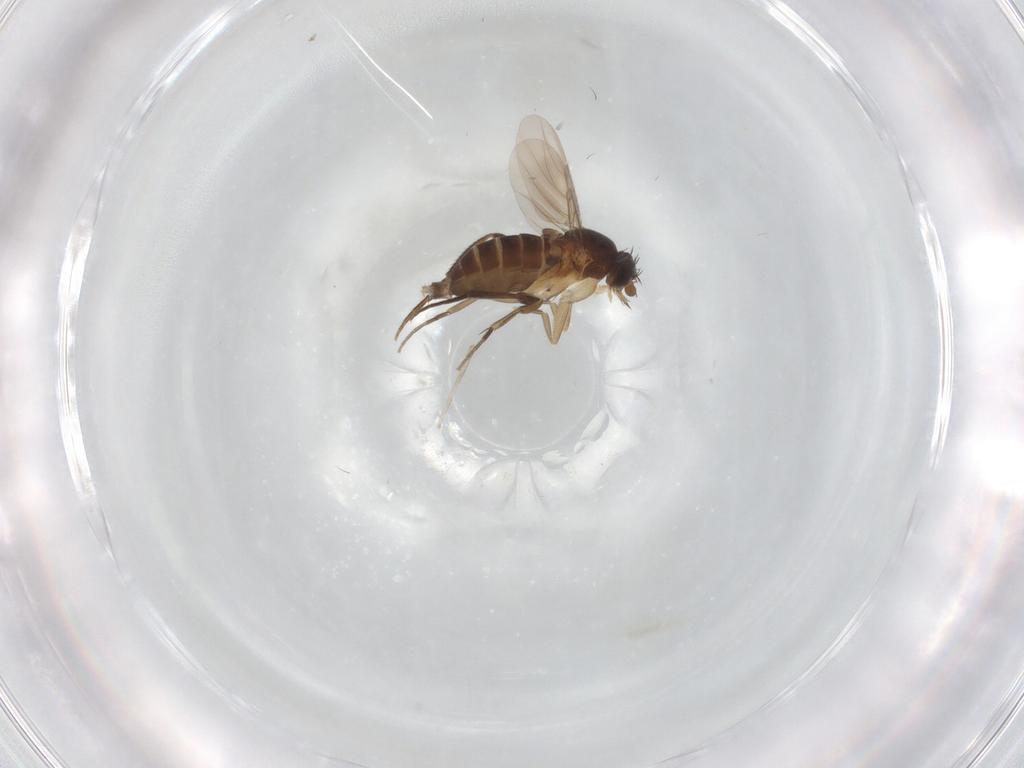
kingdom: Animalia
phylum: Arthropoda
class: Insecta
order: Diptera
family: Phoridae
